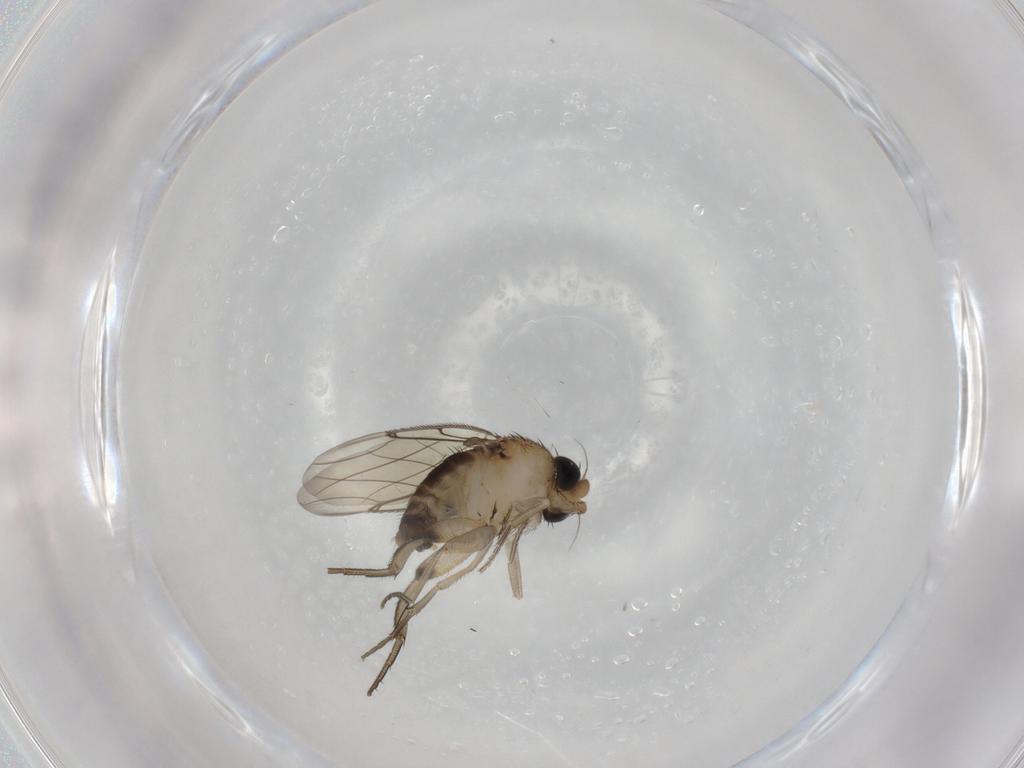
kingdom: Animalia
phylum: Arthropoda
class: Insecta
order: Diptera
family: Phoridae
